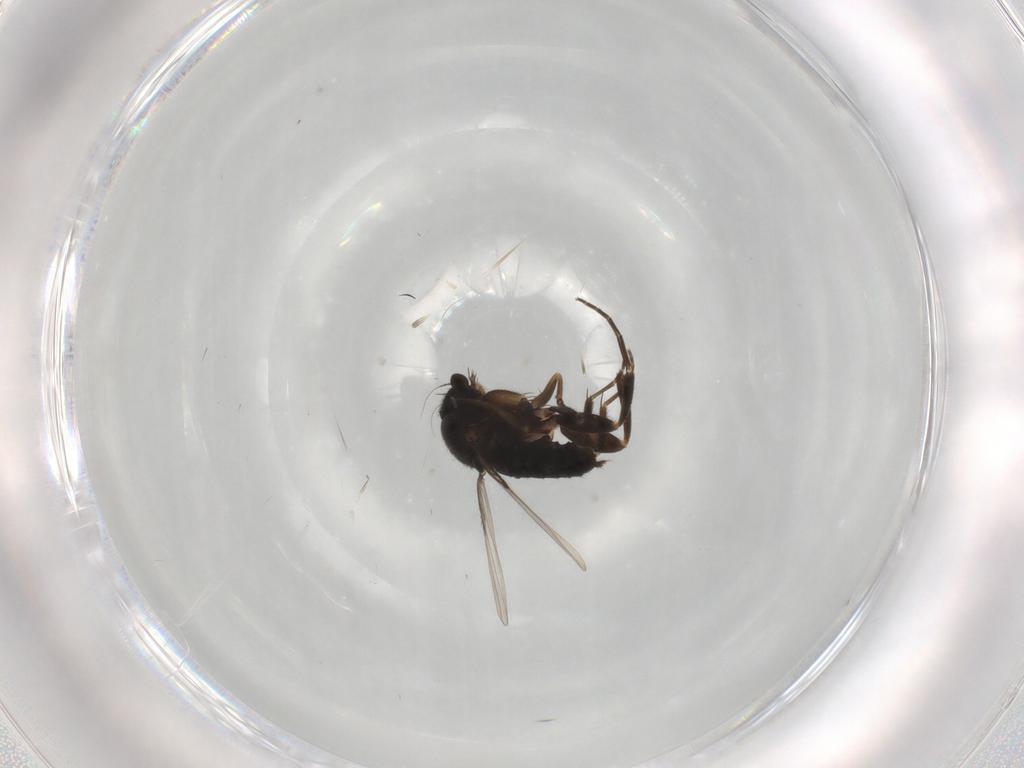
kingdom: Animalia
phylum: Arthropoda
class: Insecta
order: Diptera
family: Phoridae
